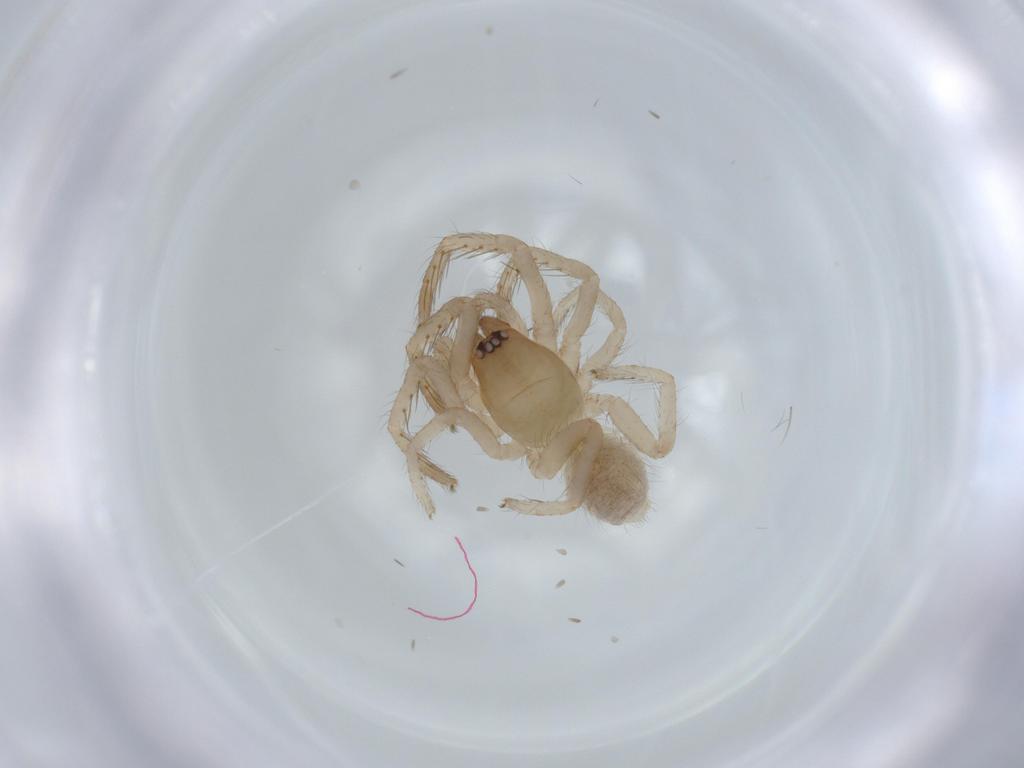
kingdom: Animalia
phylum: Arthropoda
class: Arachnida
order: Araneae
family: Segestriidae
